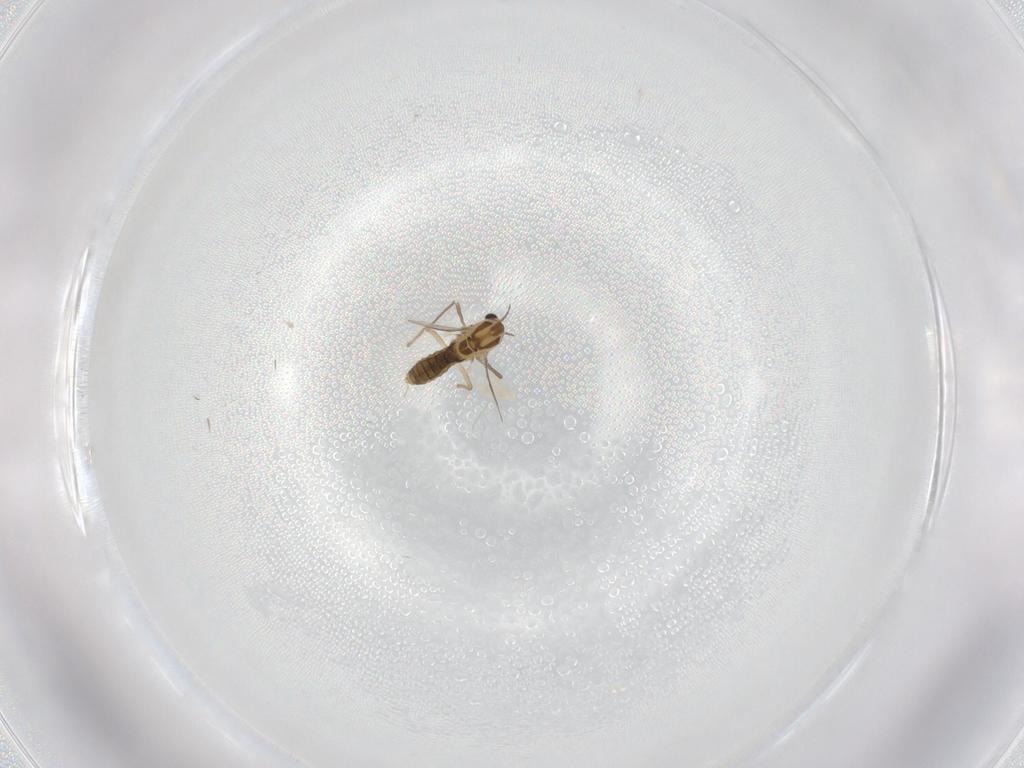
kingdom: Animalia
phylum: Arthropoda
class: Insecta
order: Diptera
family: Chironomidae
